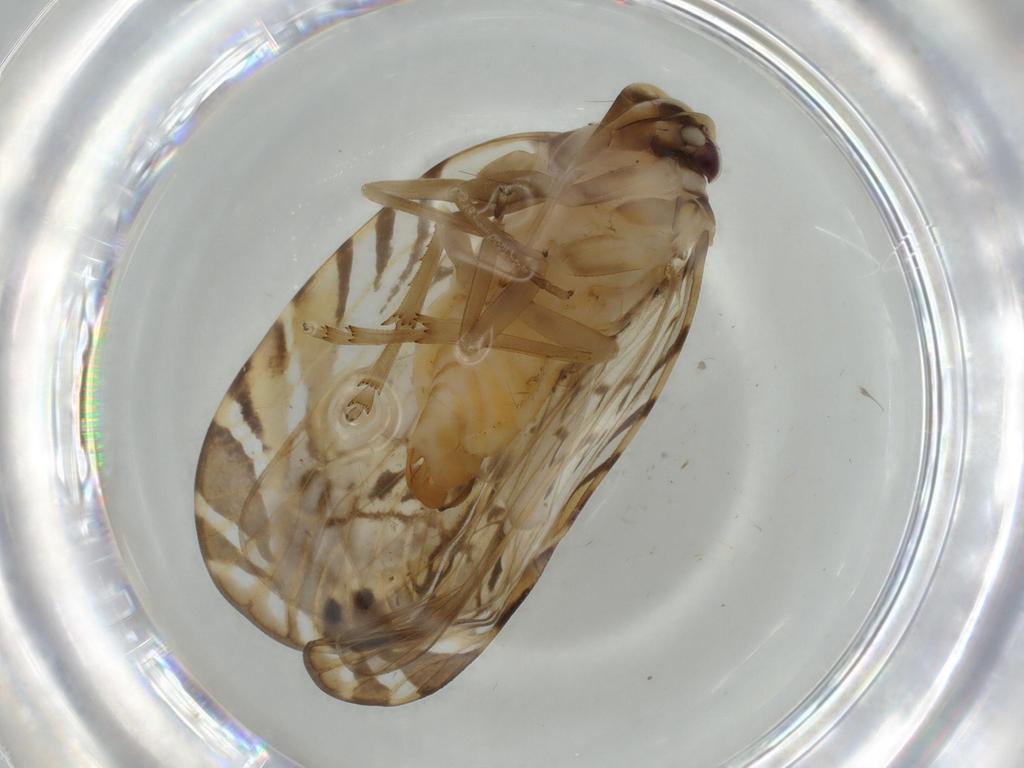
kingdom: Animalia
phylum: Arthropoda
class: Insecta
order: Hemiptera
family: Cixiidae
